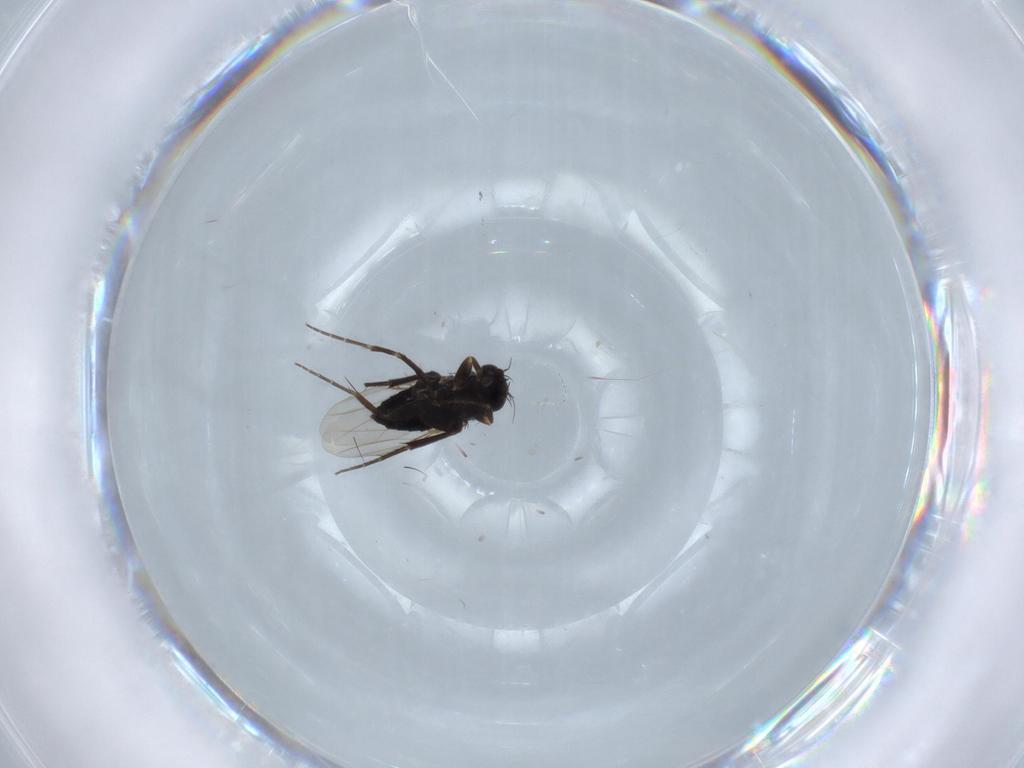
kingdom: Animalia
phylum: Arthropoda
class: Insecta
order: Diptera
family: Phoridae
